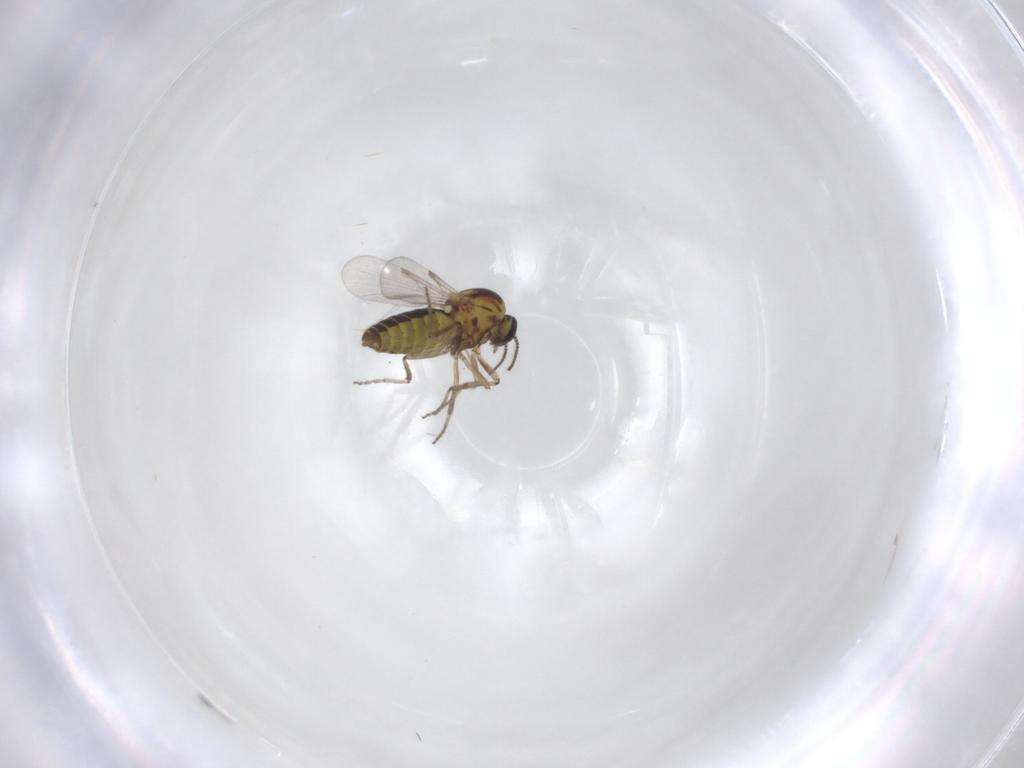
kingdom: Animalia
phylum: Arthropoda
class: Insecta
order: Diptera
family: Ceratopogonidae
